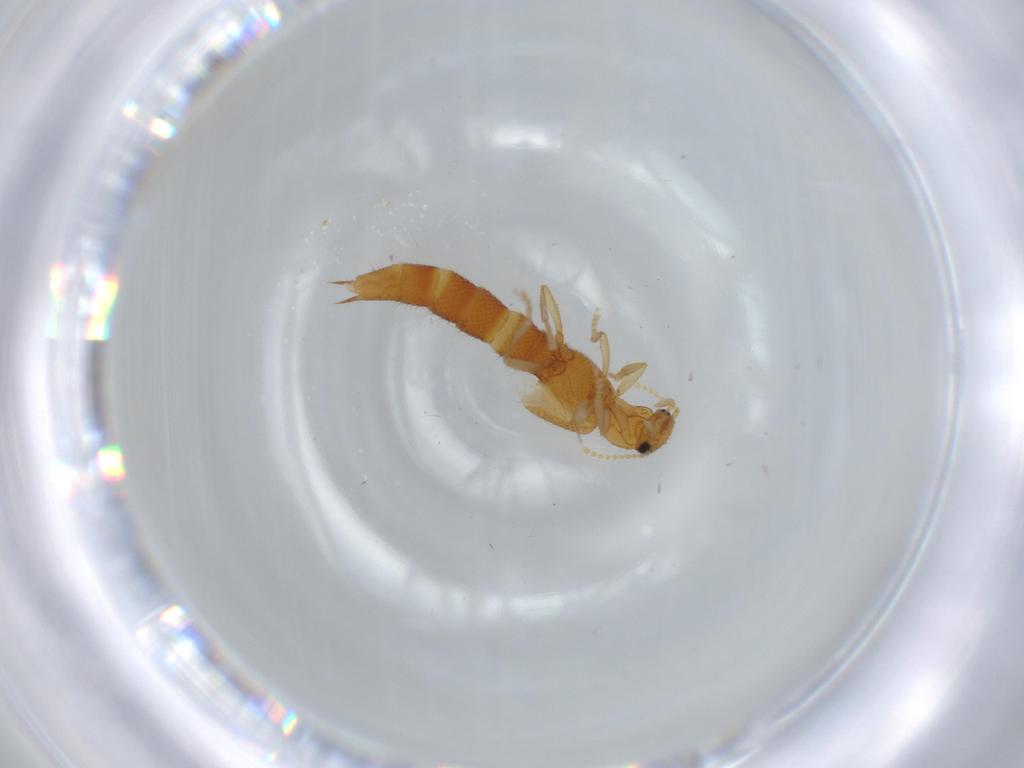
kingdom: Animalia
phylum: Arthropoda
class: Insecta
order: Coleoptera
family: Staphylinidae
